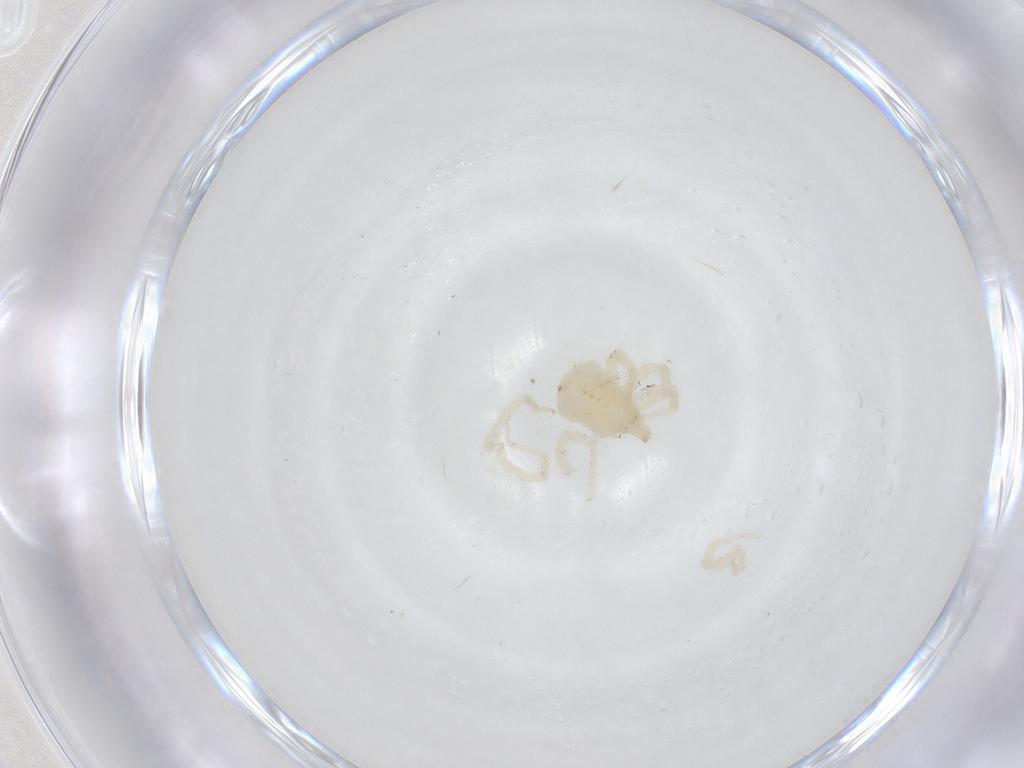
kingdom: Animalia
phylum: Arthropoda
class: Arachnida
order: Trombidiformes
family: Anystidae
